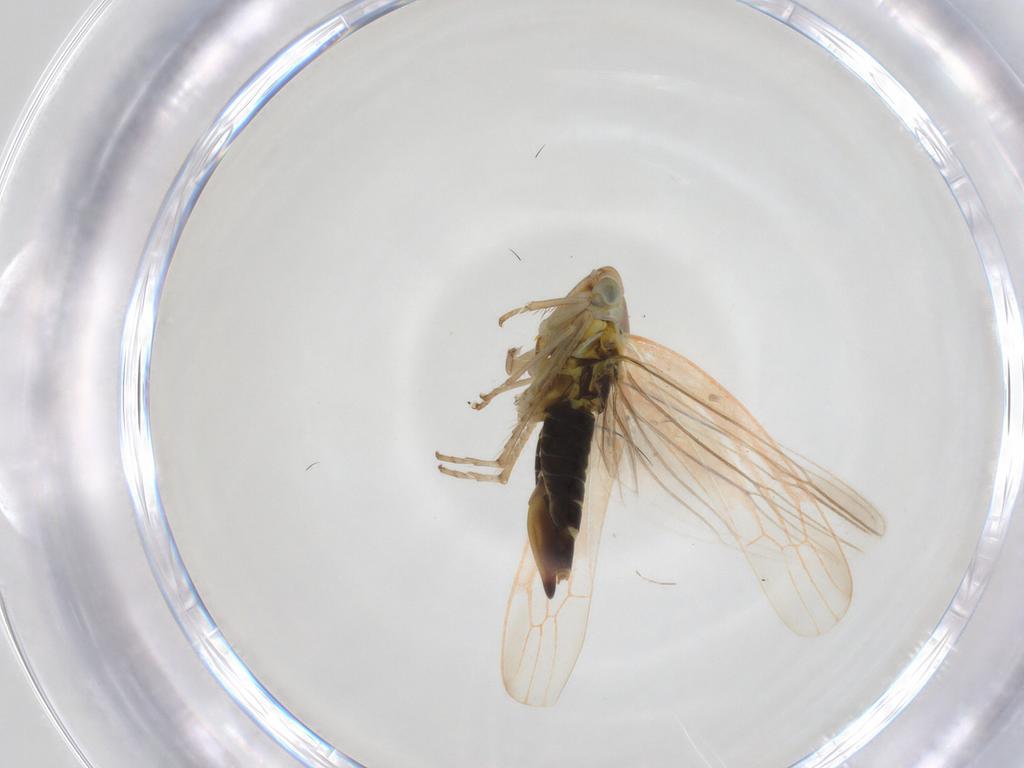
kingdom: Animalia
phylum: Arthropoda
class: Insecta
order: Hemiptera
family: Cicadellidae
